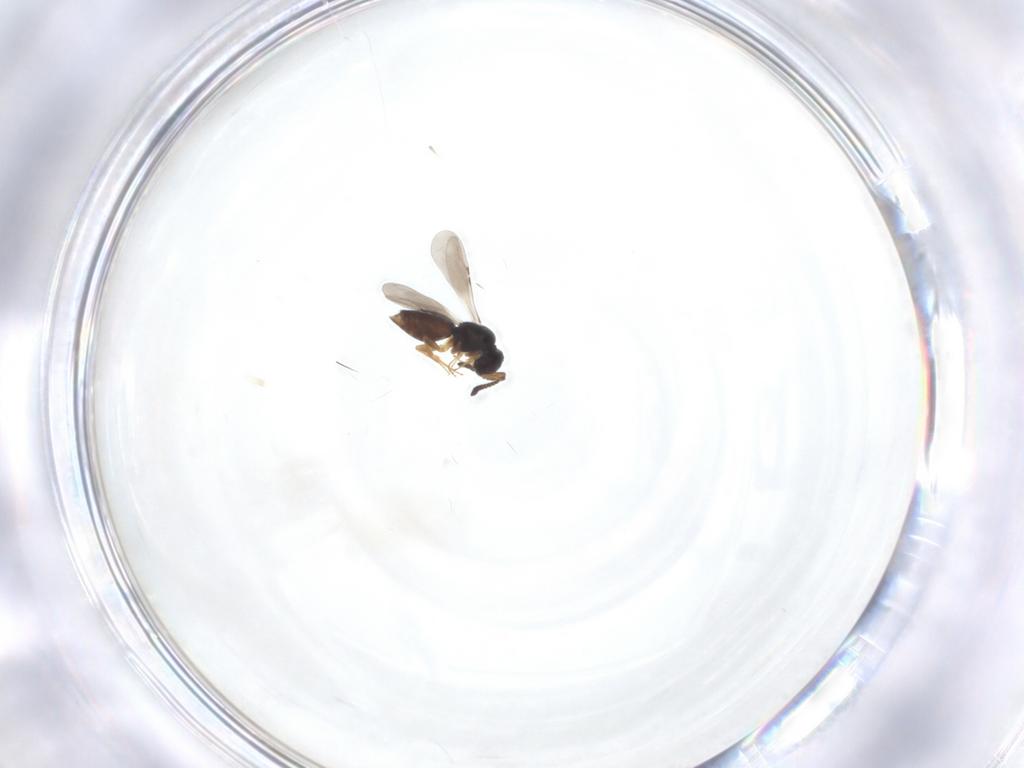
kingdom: Animalia
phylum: Arthropoda
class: Insecta
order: Hymenoptera
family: Ceraphronidae
